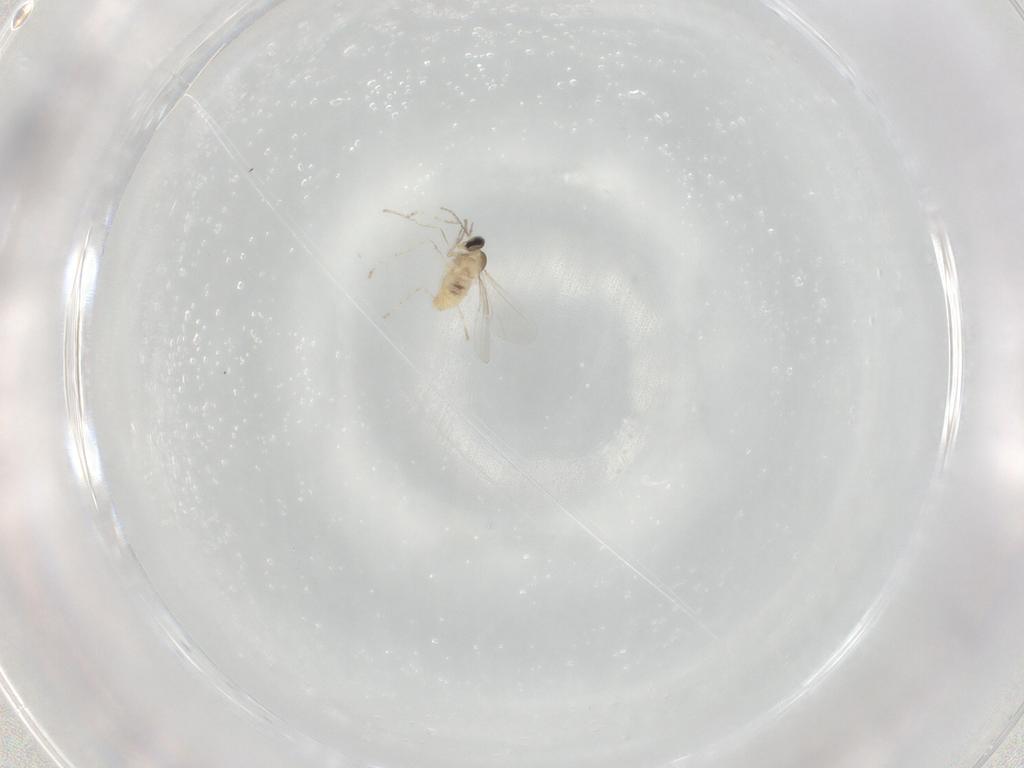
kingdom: Animalia
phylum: Arthropoda
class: Insecta
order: Diptera
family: Cecidomyiidae
